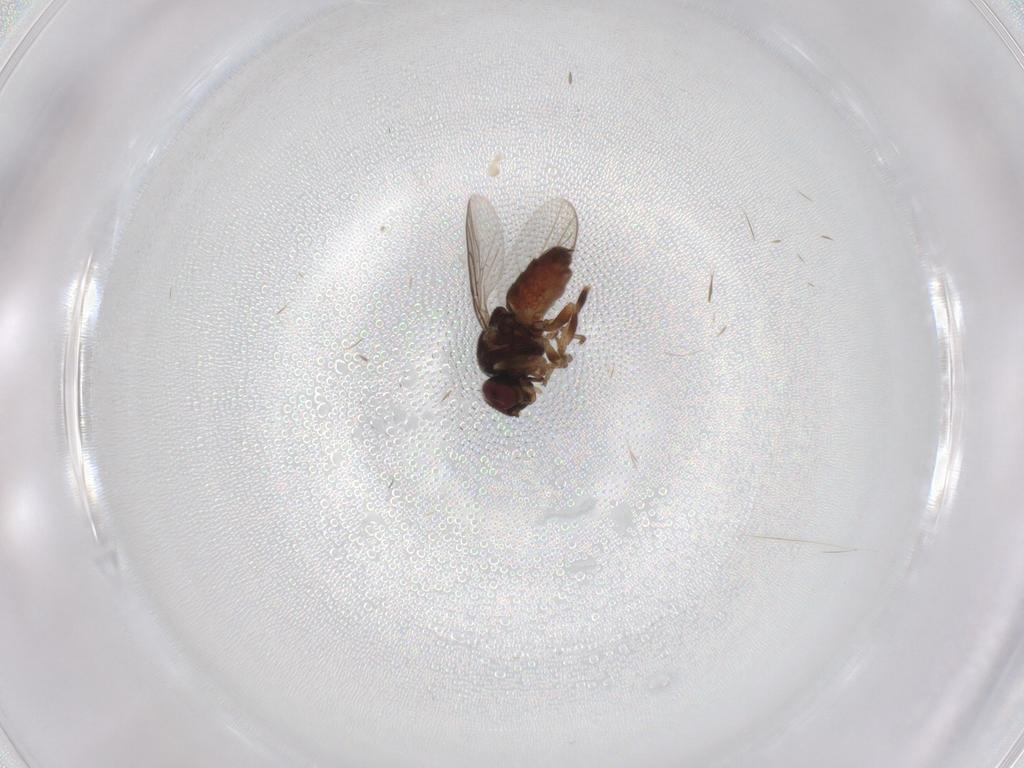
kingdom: Animalia
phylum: Arthropoda
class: Insecta
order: Diptera
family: Chloropidae
